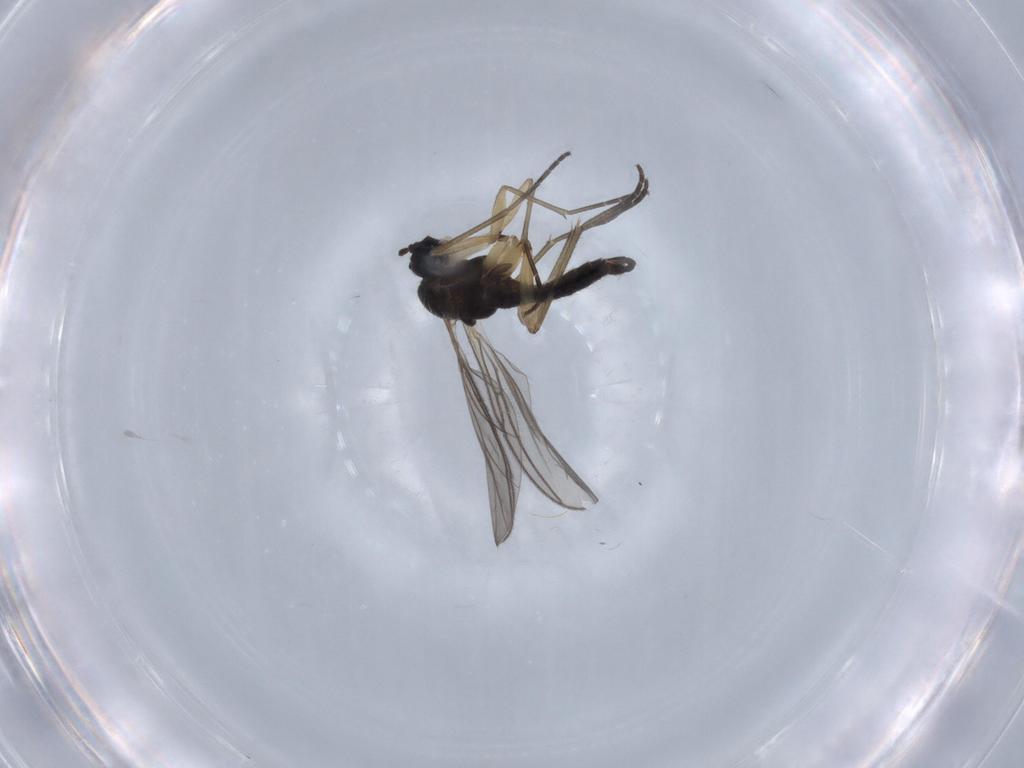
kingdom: Animalia
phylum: Arthropoda
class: Insecta
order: Diptera
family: Sciaridae
